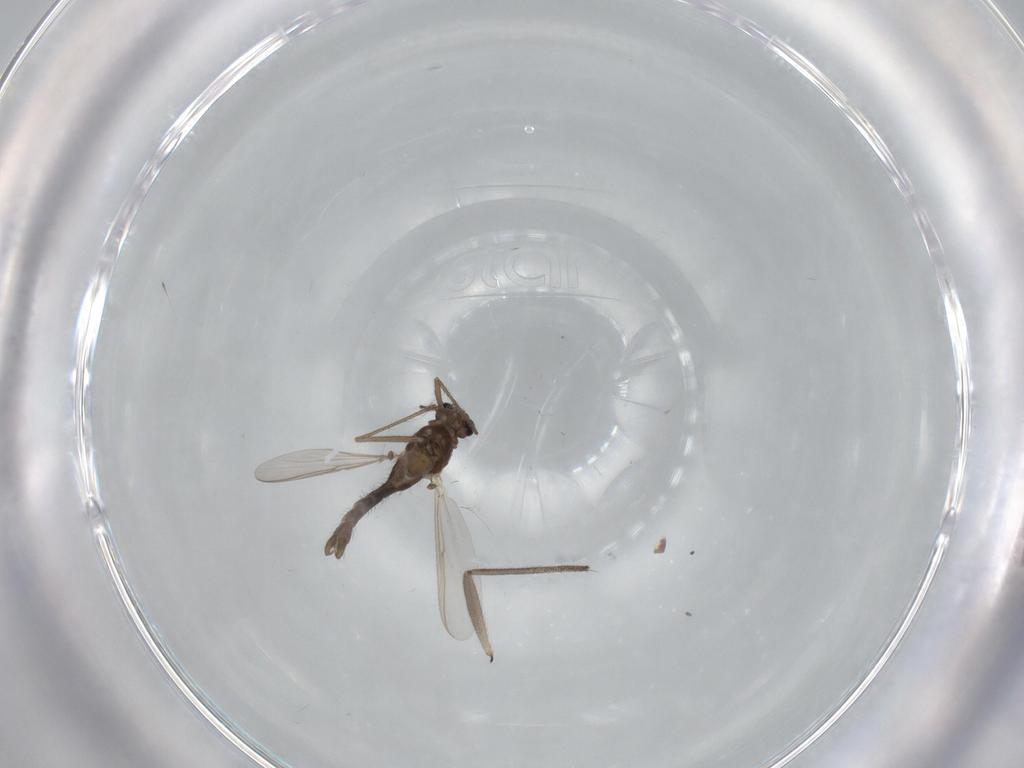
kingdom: Animalia
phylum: Arthropoda
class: Insecta
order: Diptera
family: Chironomidae
